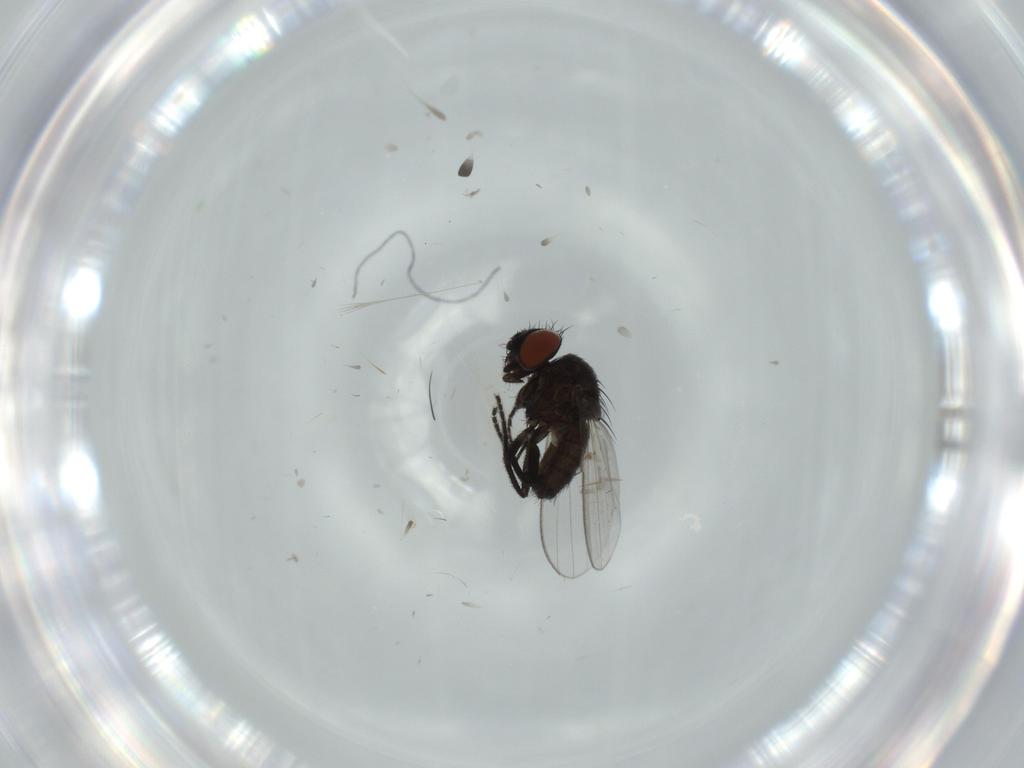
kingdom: Animalia
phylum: Arthropoda
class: Insecta
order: Diptera
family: Milichiidae
